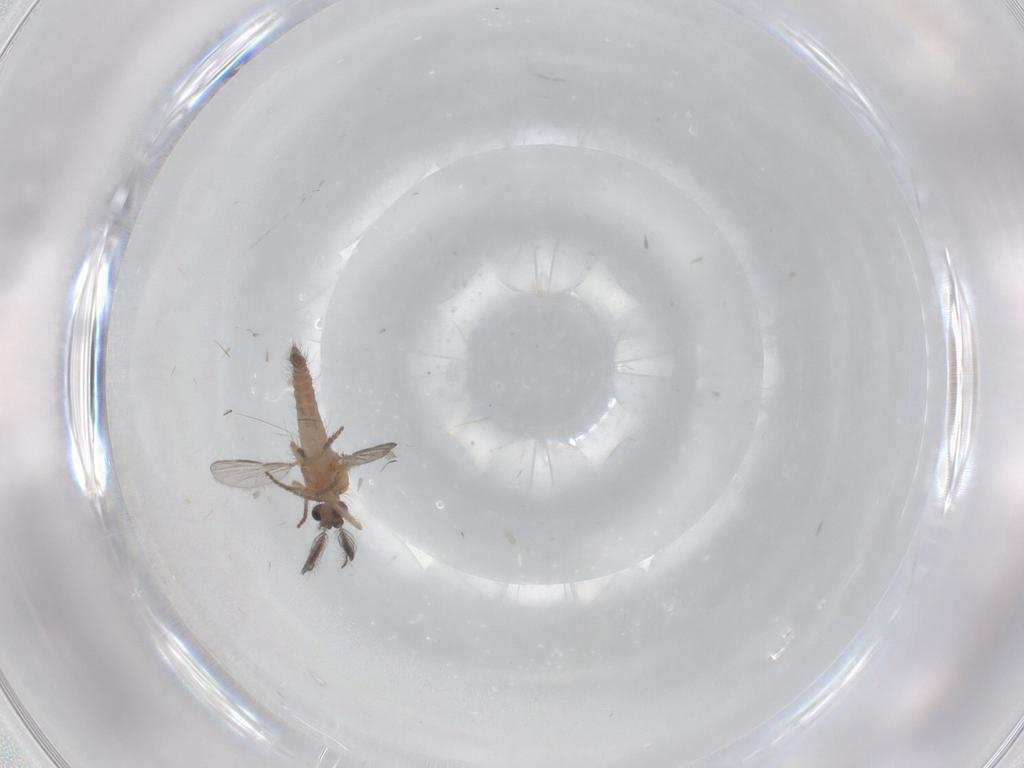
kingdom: Animalia
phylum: Arthropoda
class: Insecta
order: Diptera
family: Ceratopogonidae
